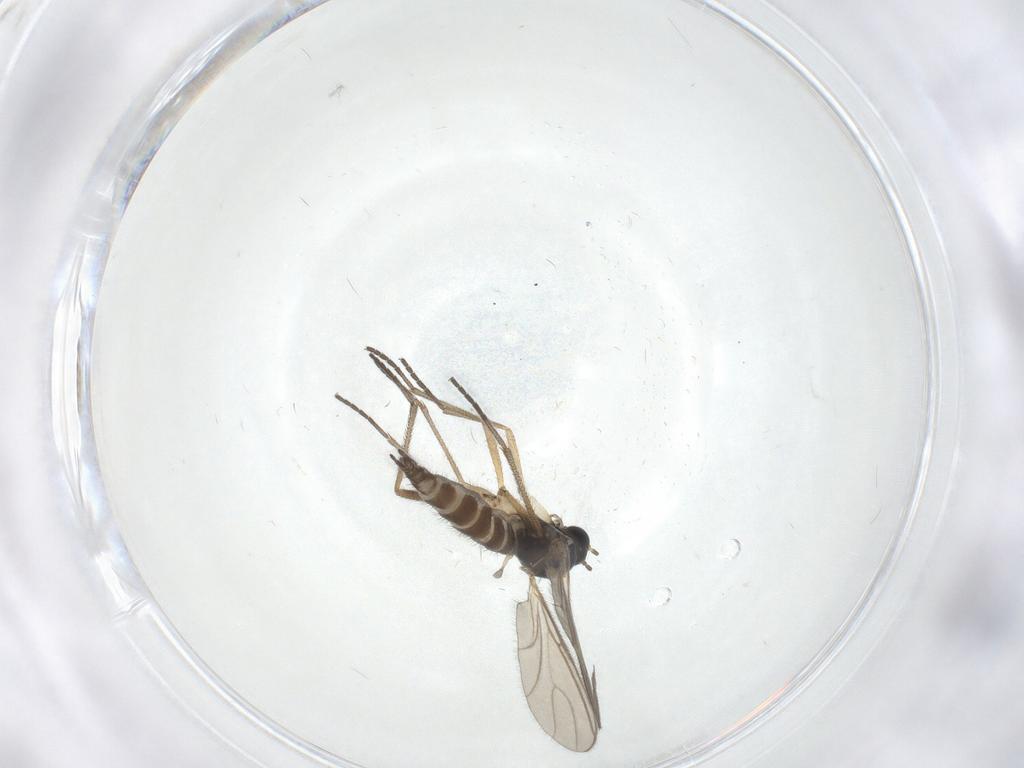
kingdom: Animalia
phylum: Arthropoda
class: Insecta
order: Diptera
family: Sciaridae
